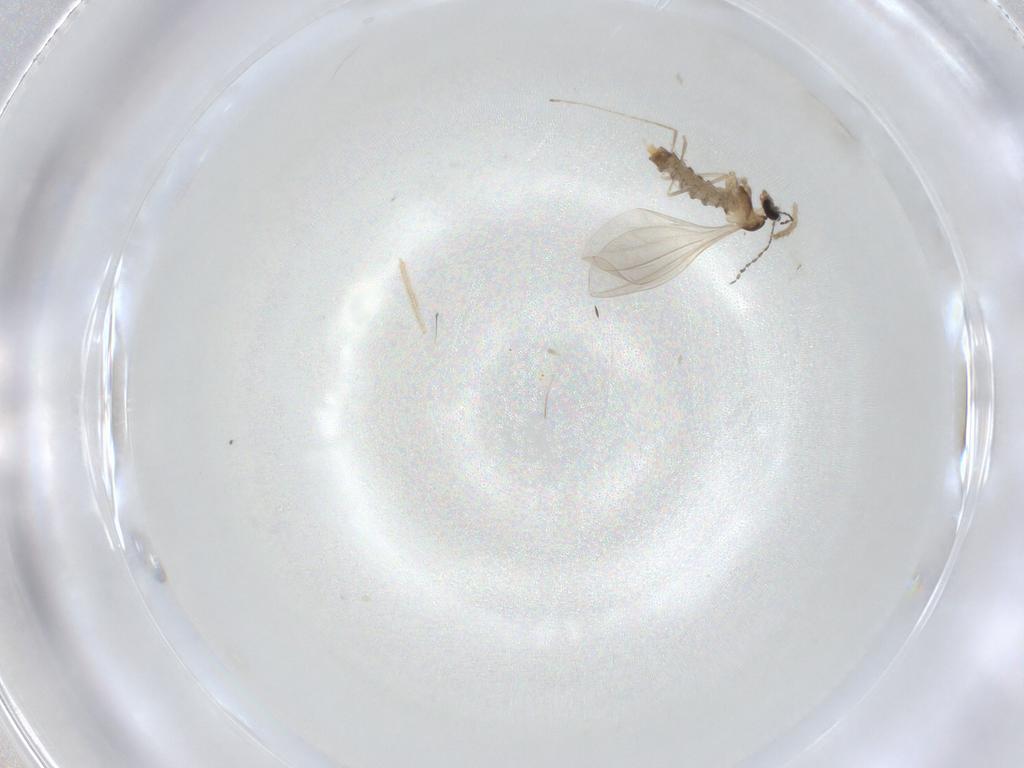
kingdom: Animalia
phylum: Arthropoda
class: Insecta
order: Diptera
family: Chironomidae
